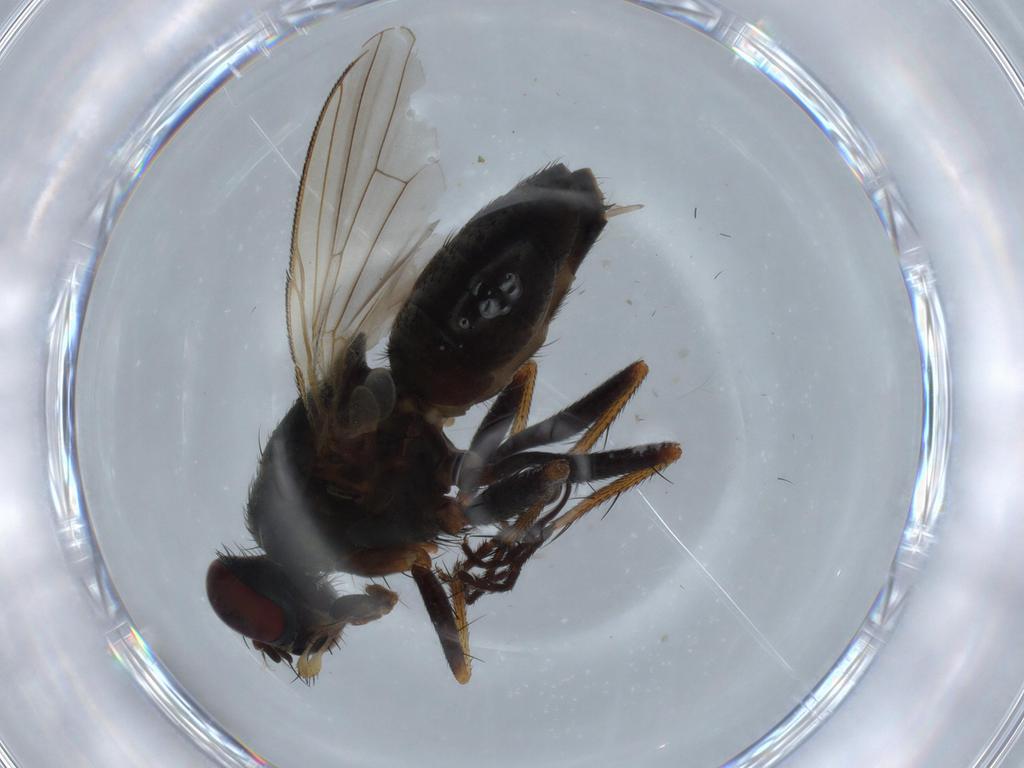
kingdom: Animalia
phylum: Arthropoda
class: Insecta
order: Diptera
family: Muscidae
